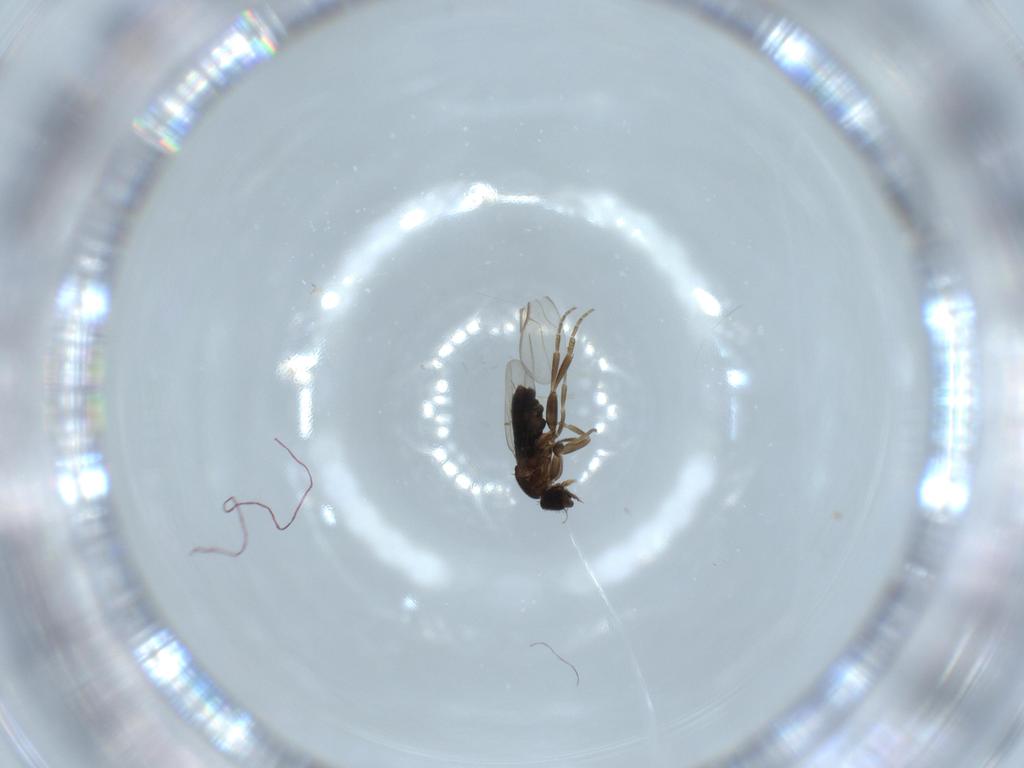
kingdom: Animalia
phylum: Arthropoda
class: Insecta
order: Diptera
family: Phoridae
